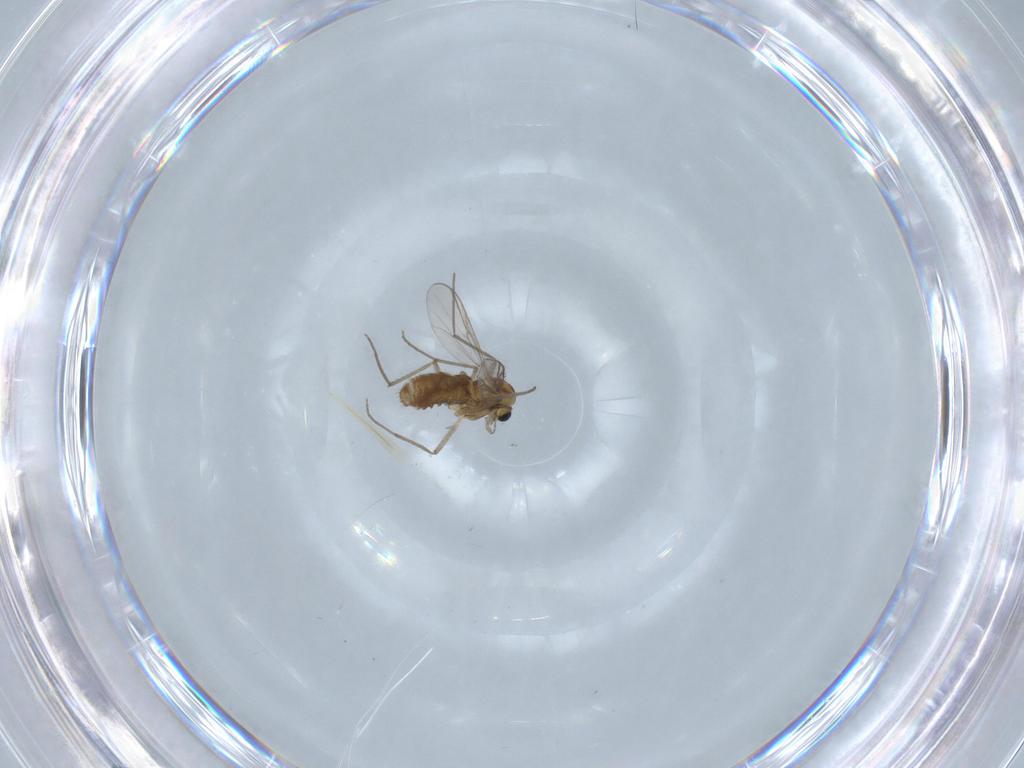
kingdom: Animalia
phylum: Arthropoda
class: Insecta
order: Diptera
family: Chironomidae
